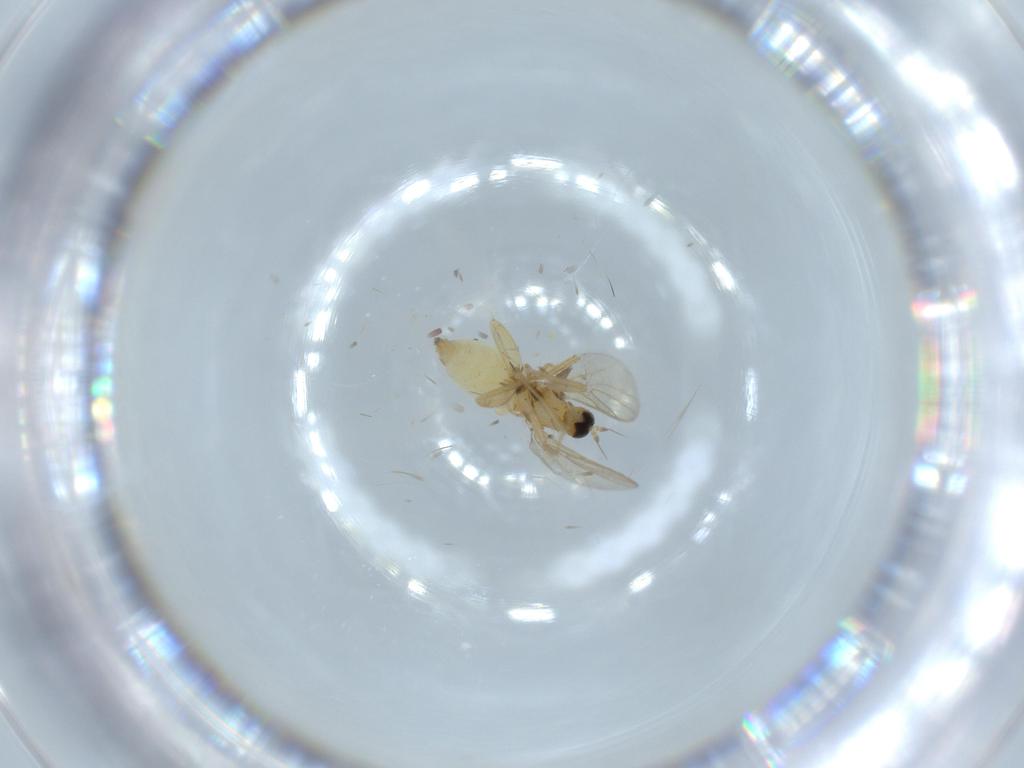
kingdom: Animalia
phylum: Arthropoda
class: Insecta
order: Diptera
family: Hybotidae
